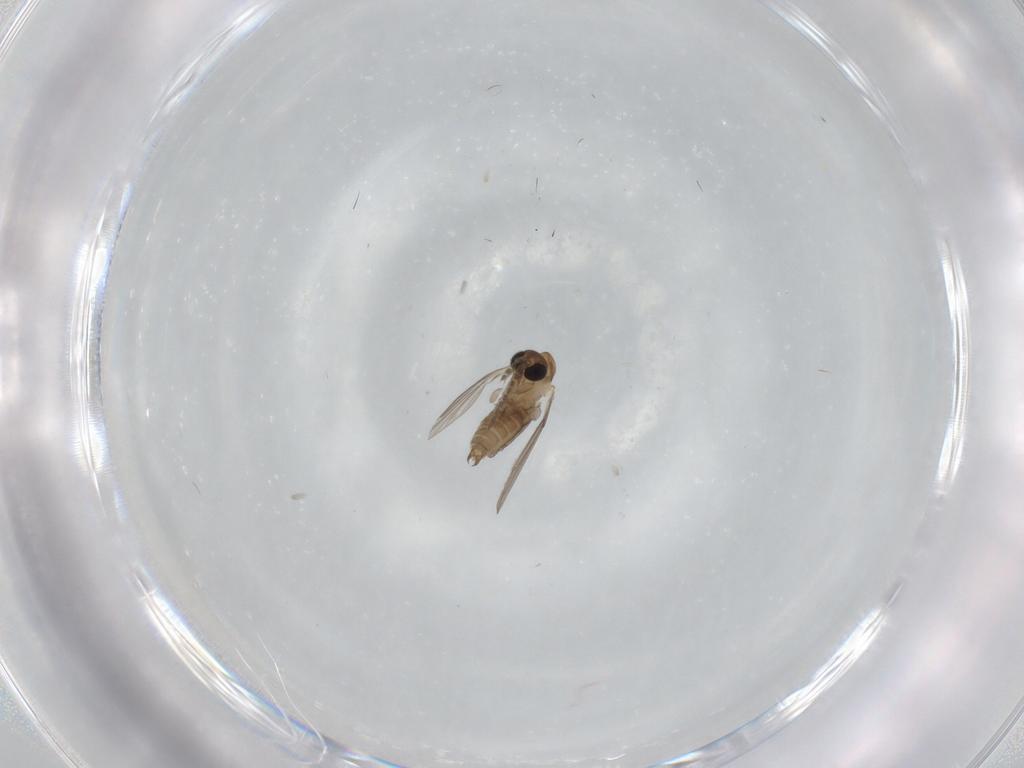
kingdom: Animalia
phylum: Arthropoda
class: Insecta
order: Diptera
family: Psychodidae
